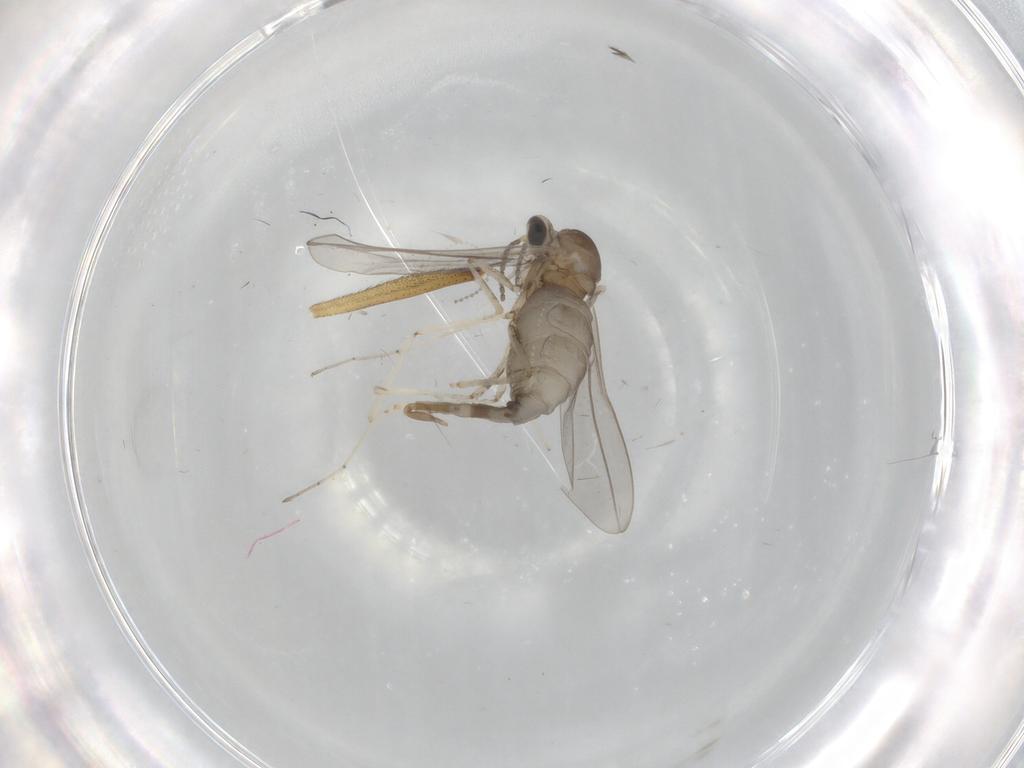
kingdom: Animalia
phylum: Arthropoda
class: Insecta
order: Diptera
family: Ditomyiidae
